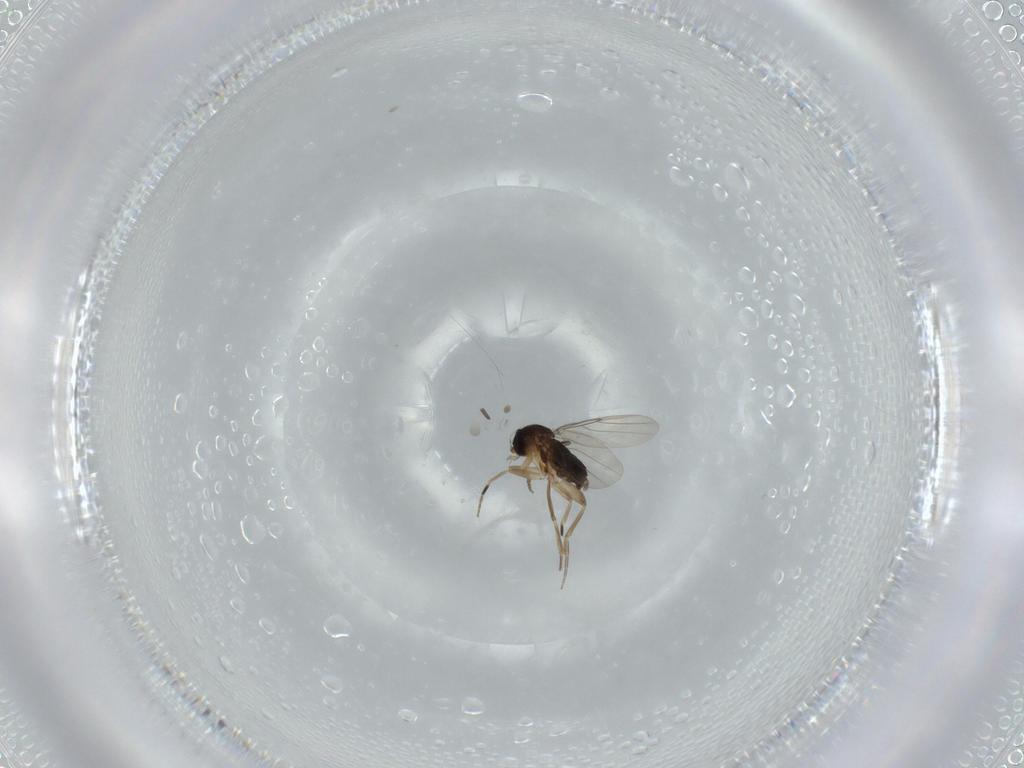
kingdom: Animalia
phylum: Arthropoda
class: Insecta
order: Diptera
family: Phoridae
